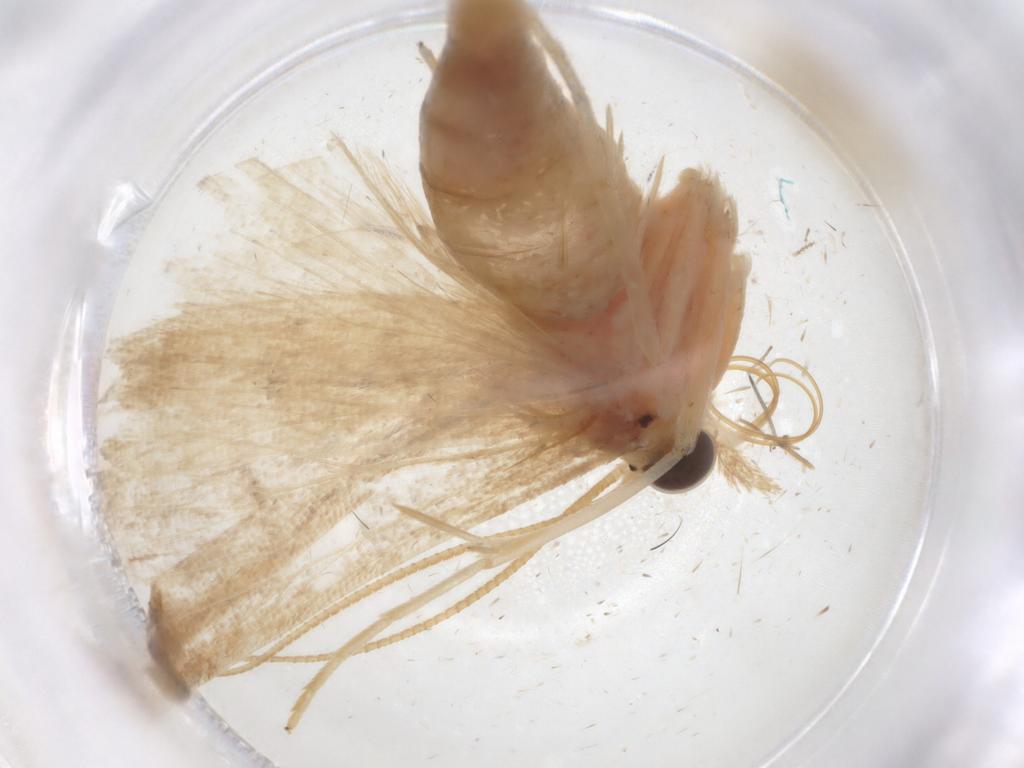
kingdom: Animalia
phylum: Arthropoda
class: Insecta
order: Lepidoptera
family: Crambidae
